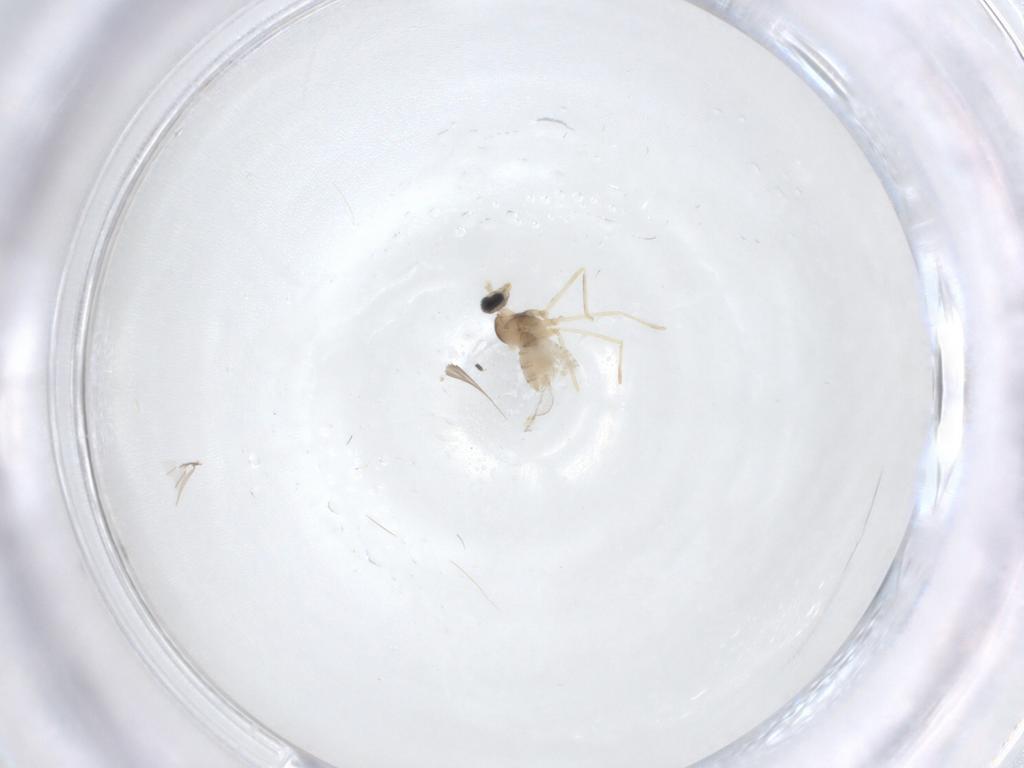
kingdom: Animalia
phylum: Arthropoda
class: Insecta
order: Diptera
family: Cecidomyiidae
